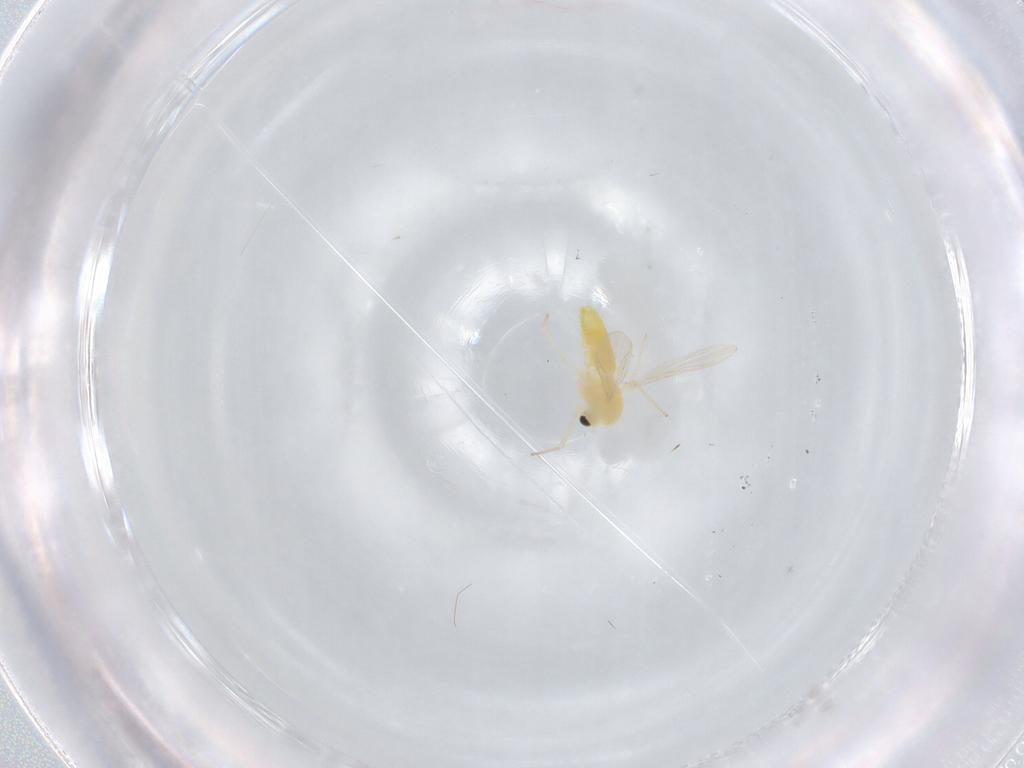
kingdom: Animalia
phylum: Arthropoda
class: Insecta
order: Diptera
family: Chironomidae
